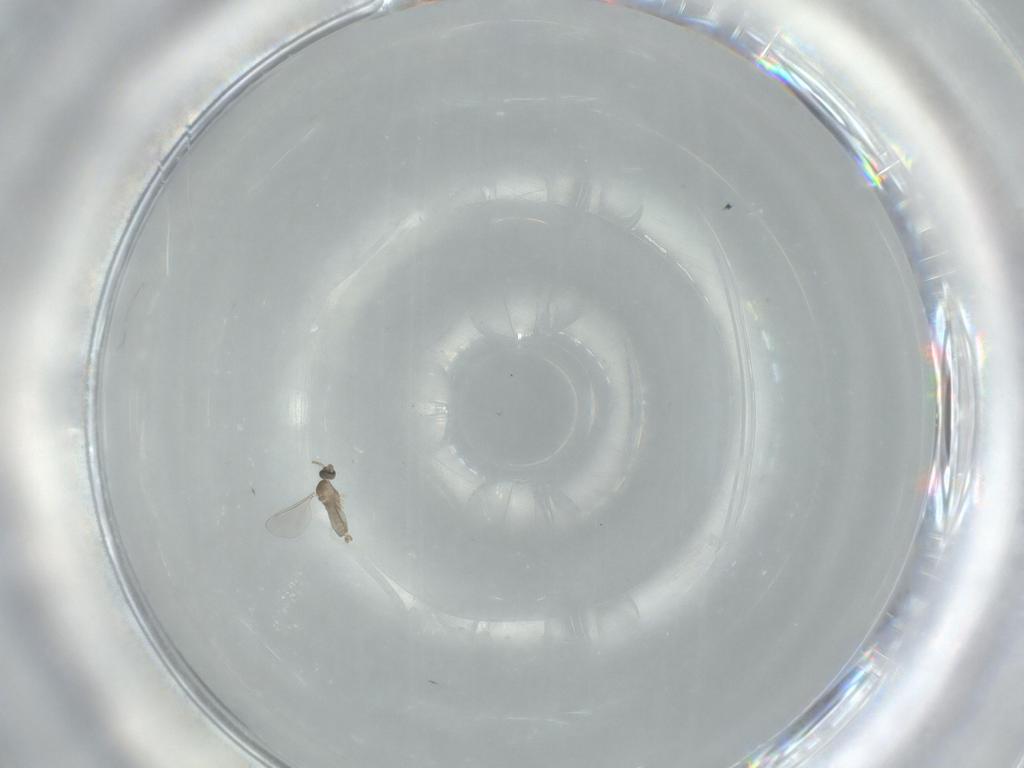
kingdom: Animalia
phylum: Arthropoda
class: Insecta
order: Diptera
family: Cecidomyiidae
